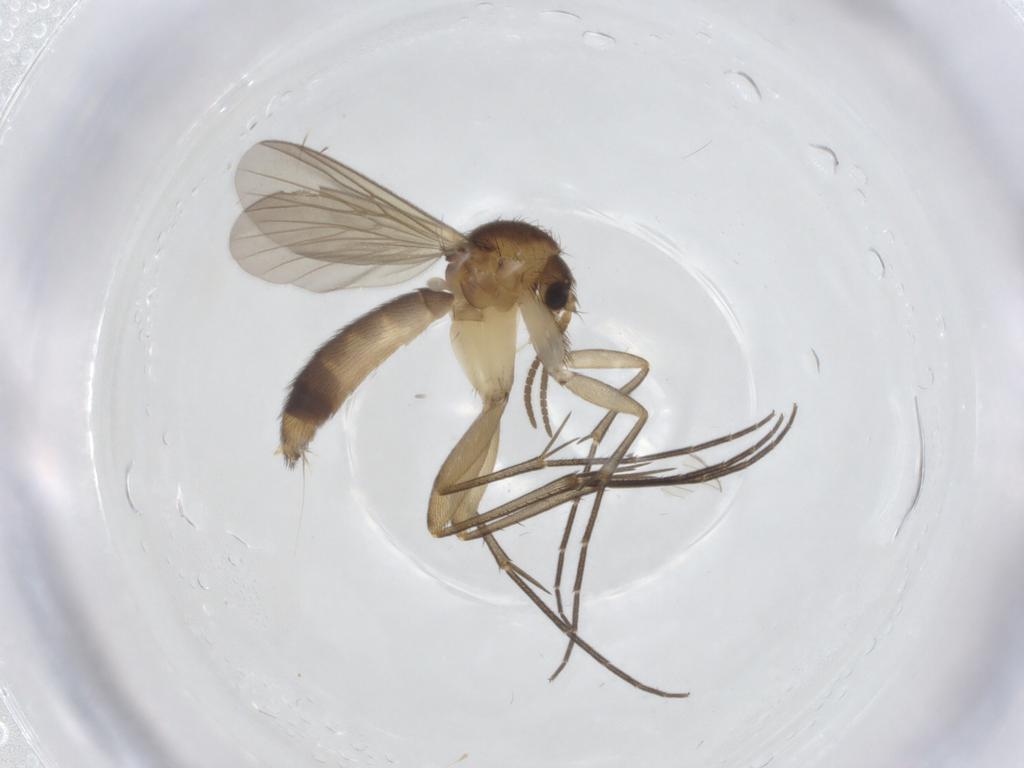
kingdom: Animalia
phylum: Arthropoda
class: Insecta
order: Diptera
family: Mycetophilidae
